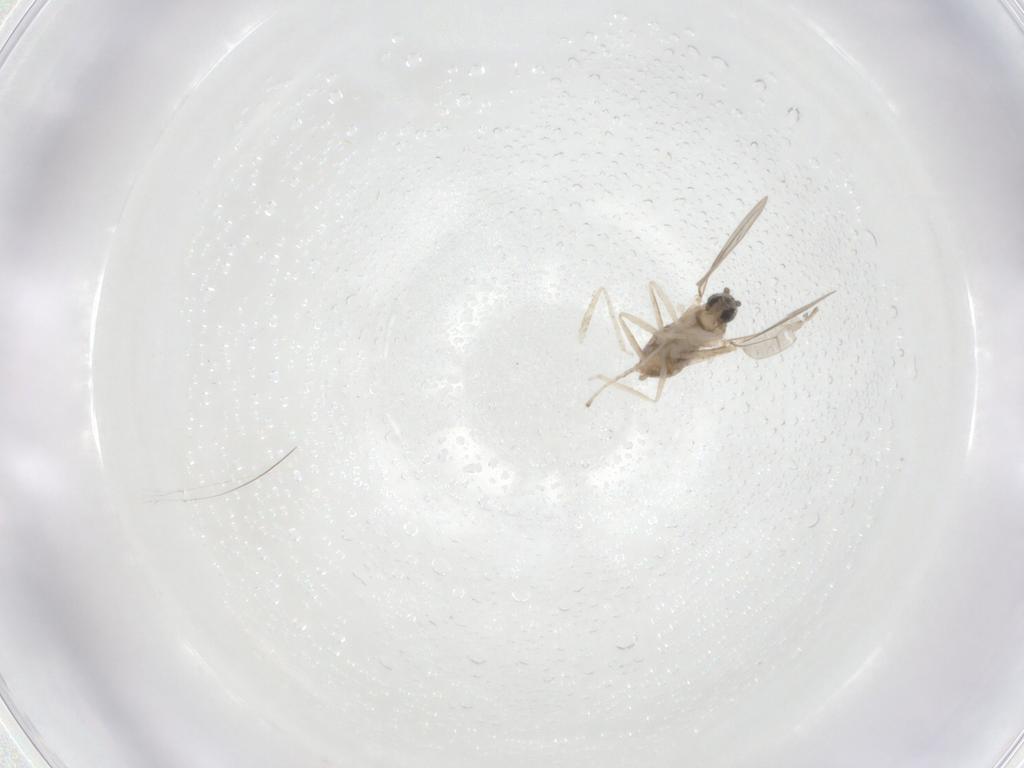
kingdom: Animalia
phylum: Arthropoda
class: Insecta
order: Diptera
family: Cecidomyiidae
